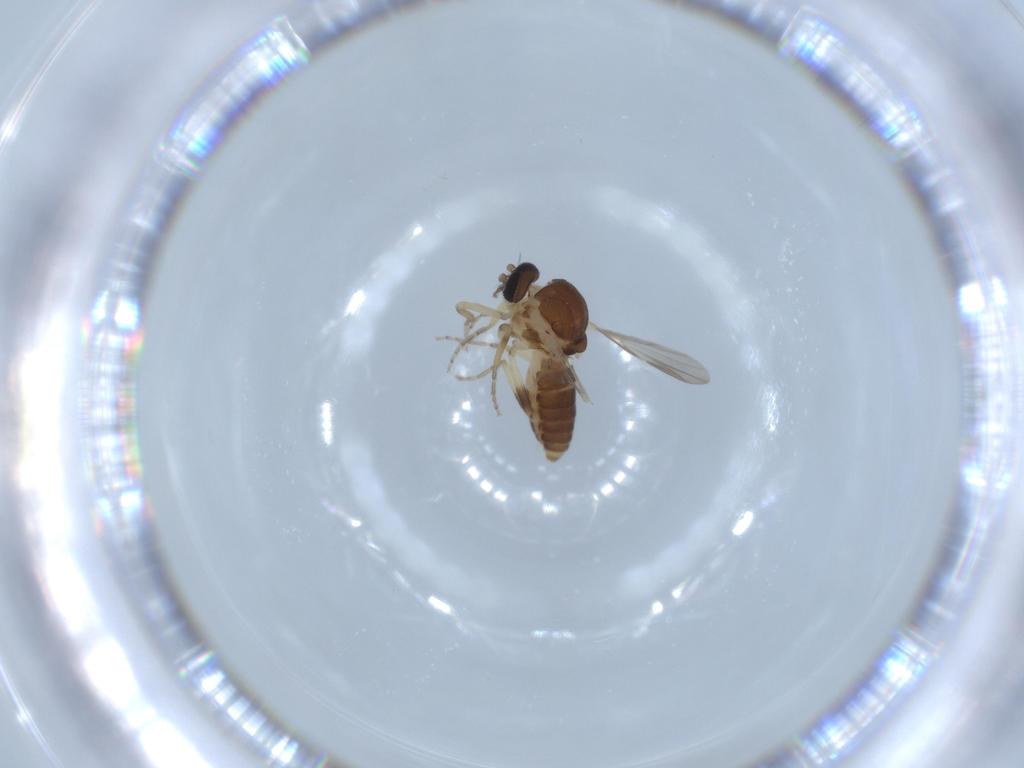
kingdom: Animalia
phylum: Arthropoda
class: Insecta
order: Diptera
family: Ceratopogonidae
